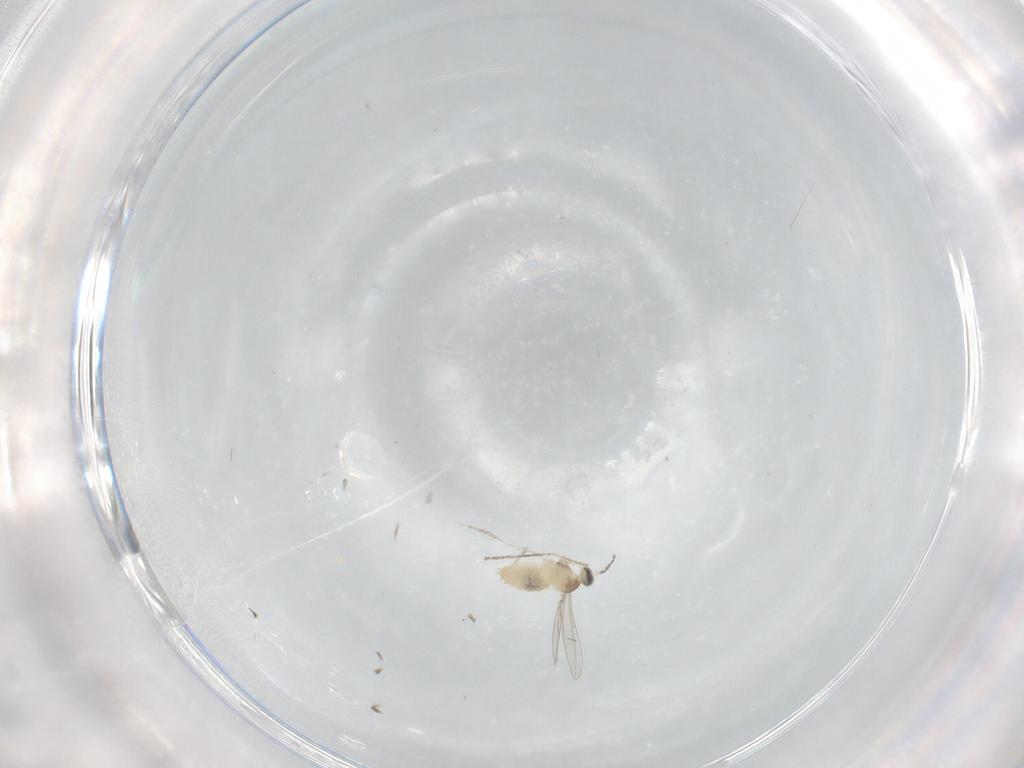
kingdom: Animalia
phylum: Arthropoda
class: Insecta
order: Diptera
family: Cecidomyiidae
